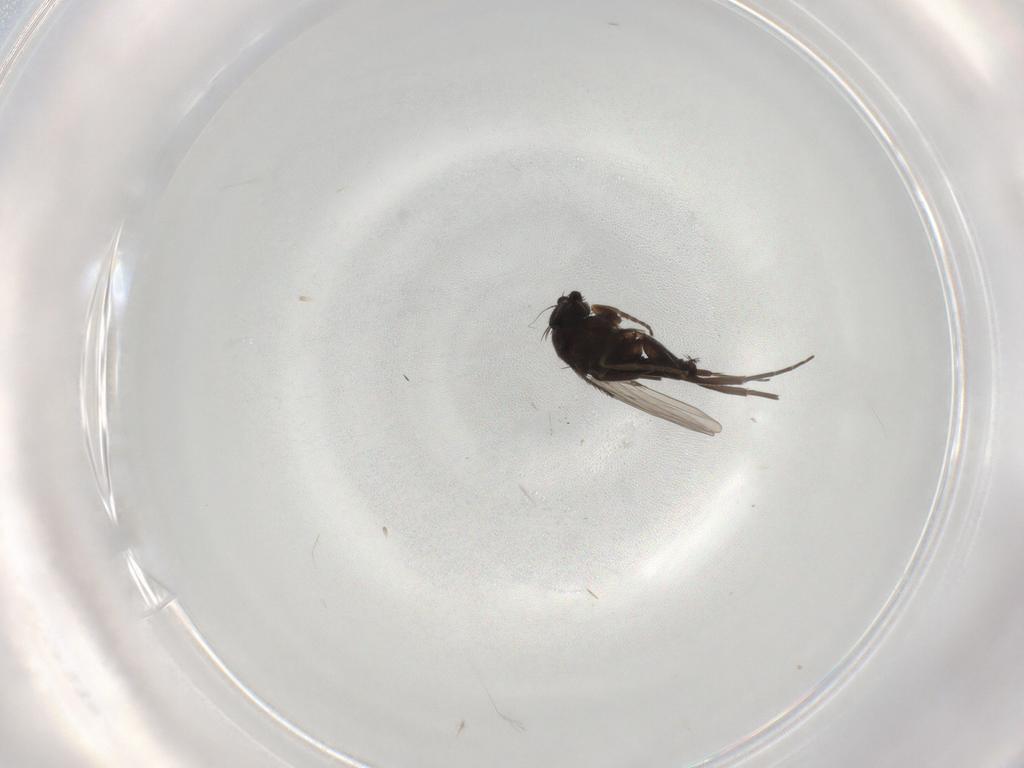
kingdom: Animalia
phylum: Arthropoda
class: Insecta
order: Diptera
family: Phoridae
